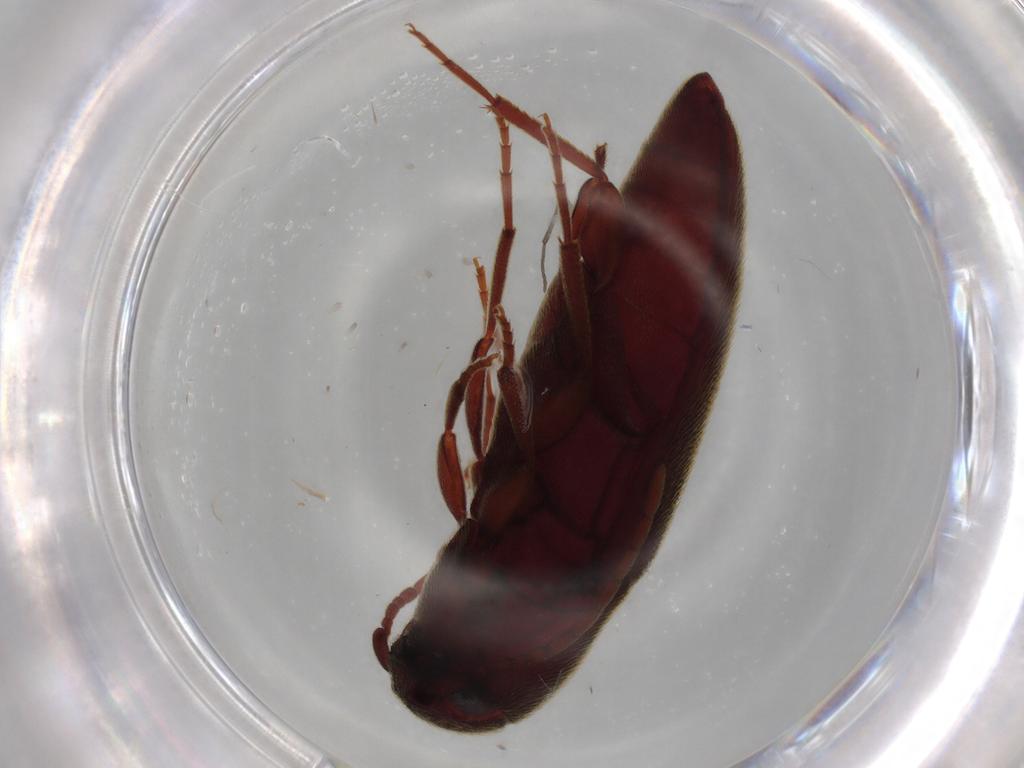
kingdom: Animalia
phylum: Arthropoda
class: Insecta
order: Coleoptera
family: Eucnemidae
